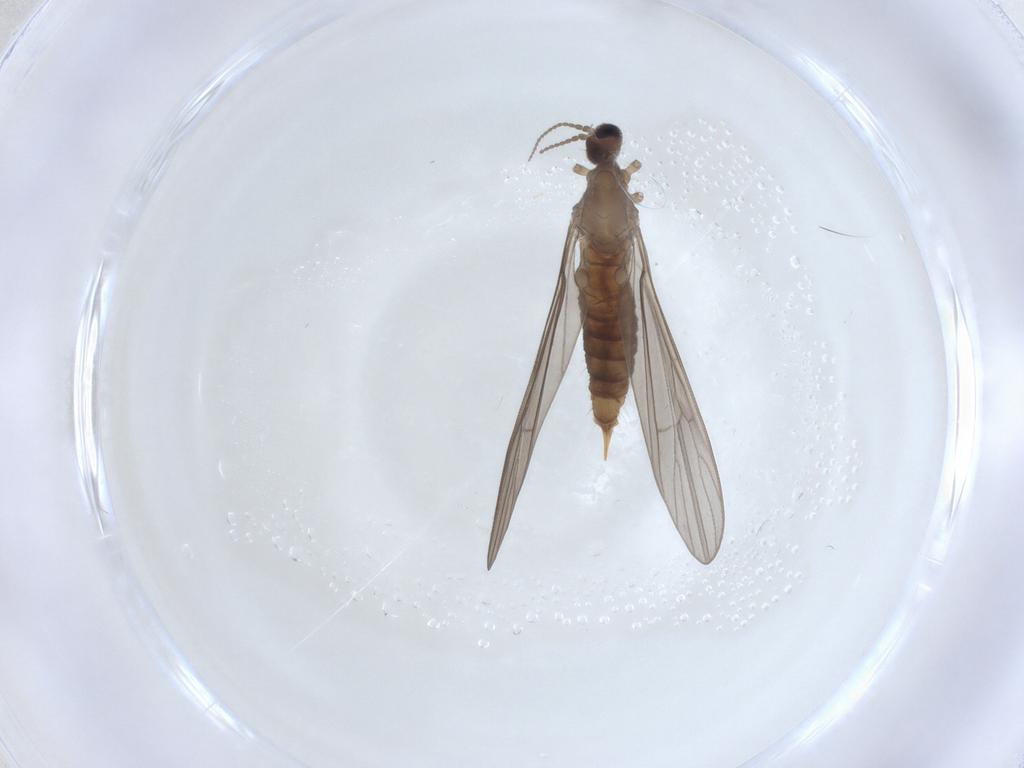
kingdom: Animalia
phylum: Arthropoda
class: Insecta
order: Diptera
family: Limoniidae
